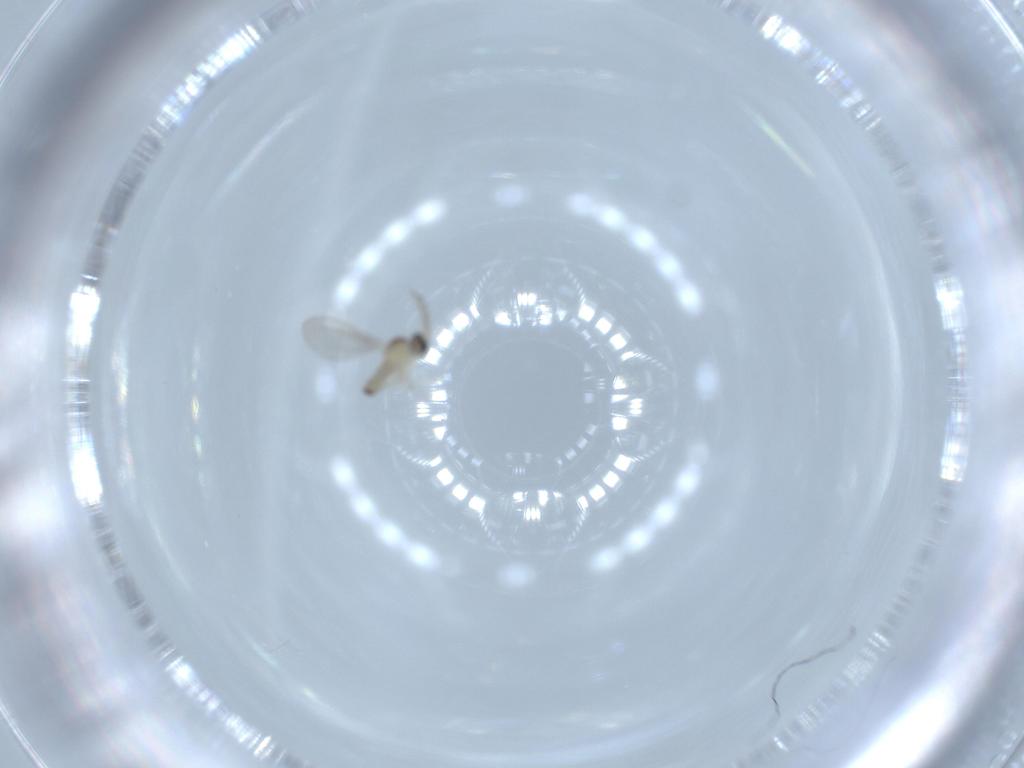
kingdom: Animalia
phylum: Arthropoda
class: Insecta
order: Diptera
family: Cecidomyiidae
